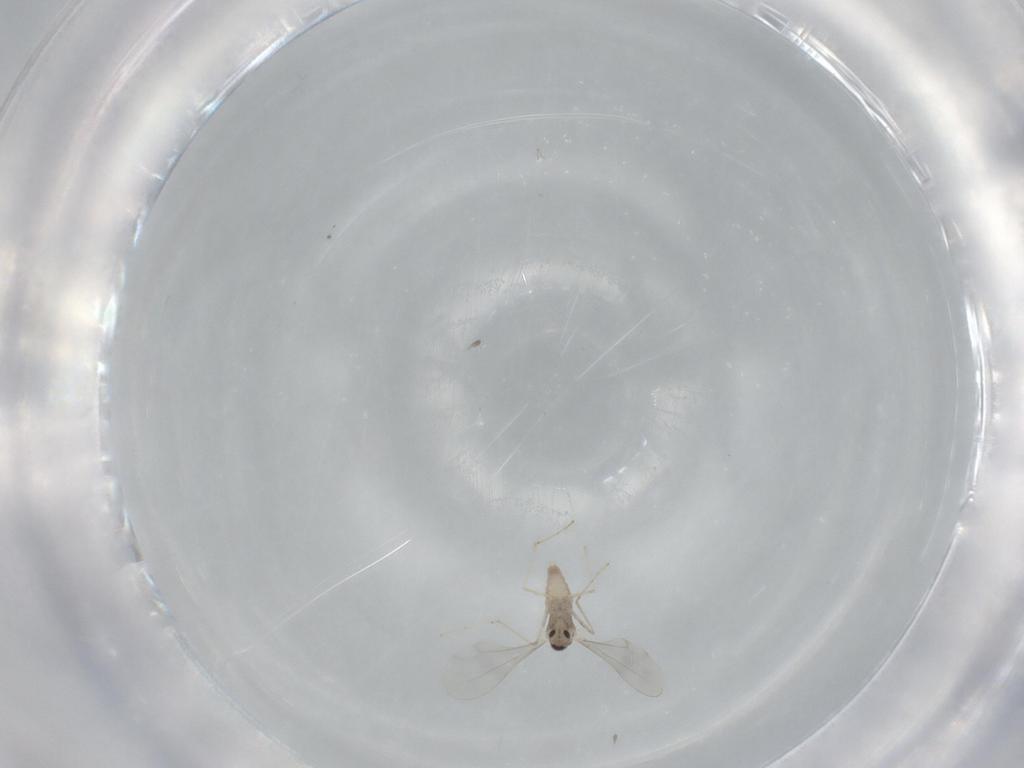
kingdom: Animalia
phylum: Arthropoda
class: Insecta
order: Diptera
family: Cecidomyiidae
